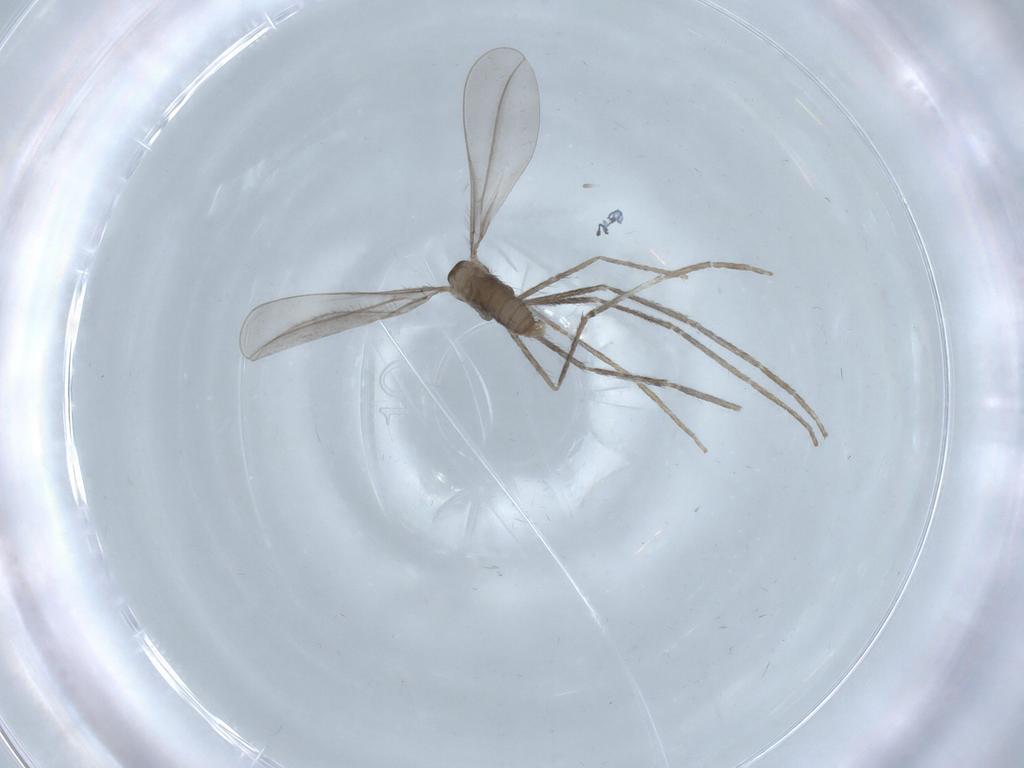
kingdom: Animalia
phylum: Arthropoda
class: Insecta
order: Diptera
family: Cecidomyiidae
